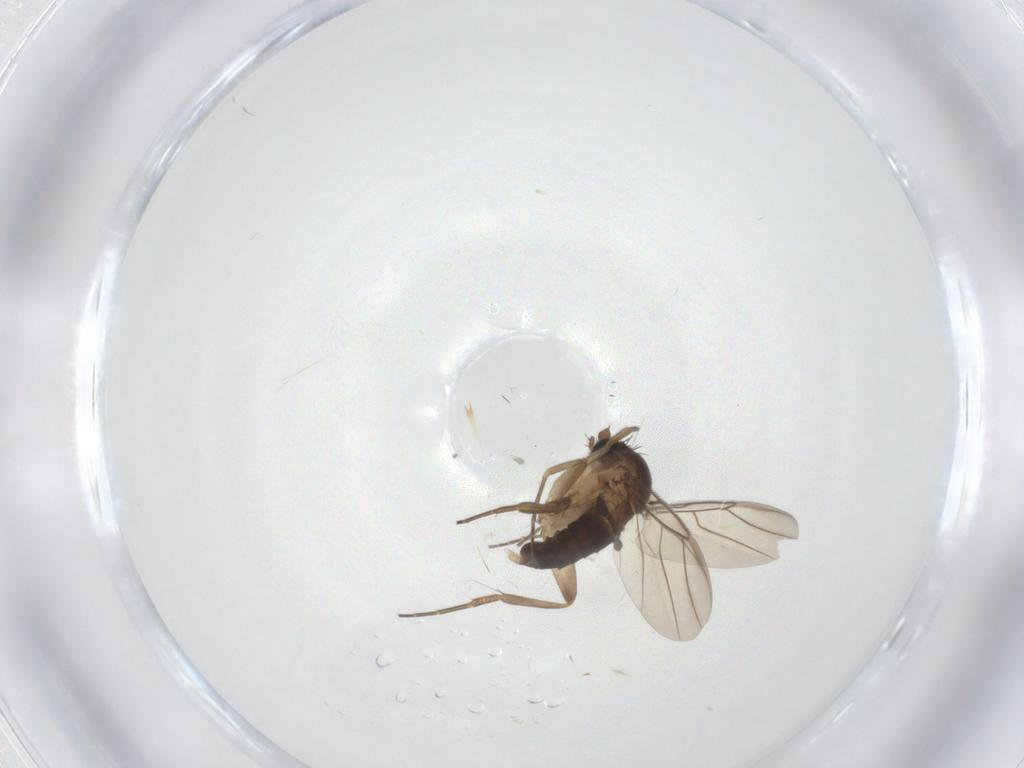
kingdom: Animalia
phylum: Arthropoda
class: Insecta
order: Diptera
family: Phoridae
